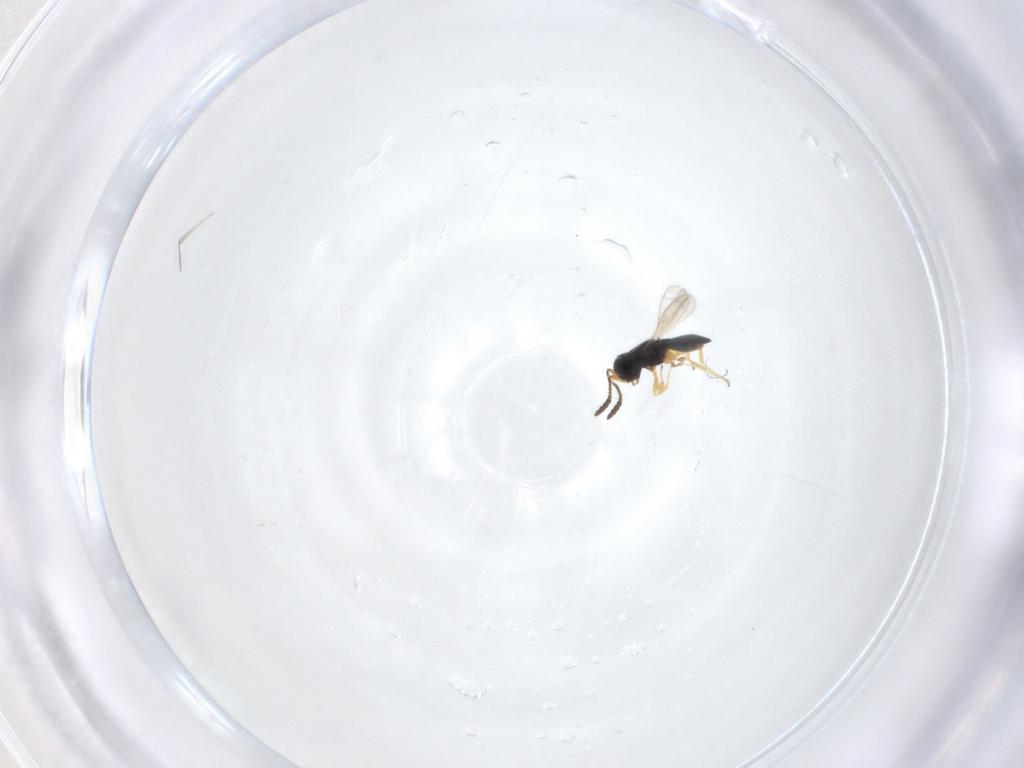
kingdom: Animalia
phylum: Arthropoda
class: Insecta
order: Hymenoptera
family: Scelionidae
